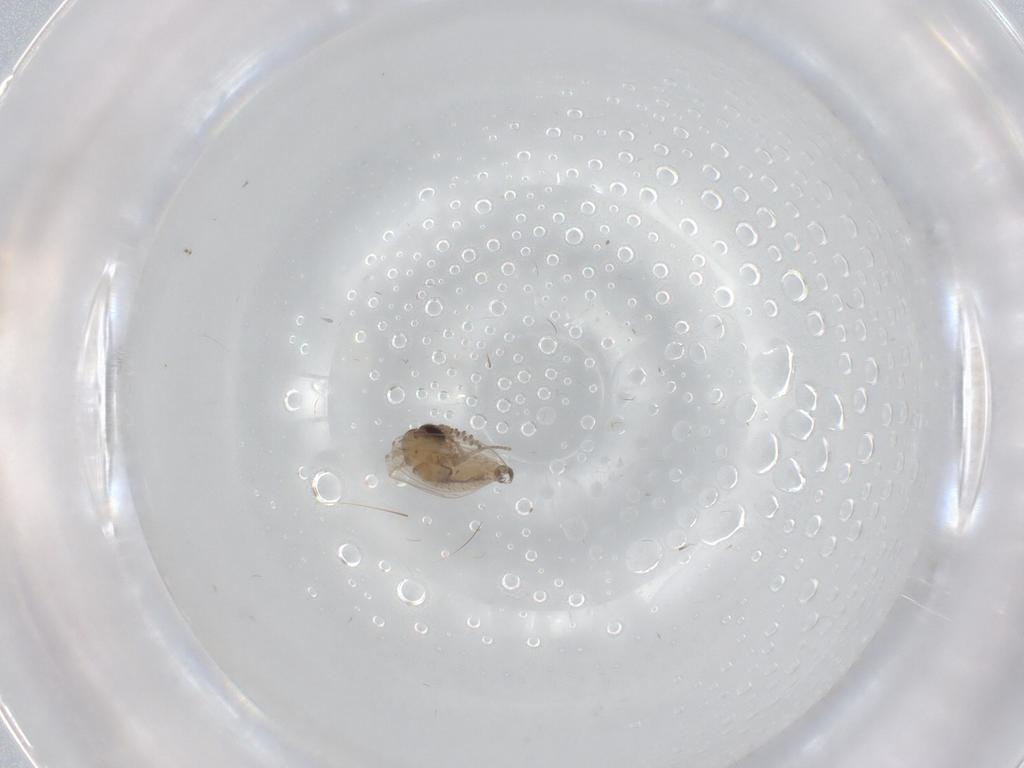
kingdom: Animalia
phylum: Arthropoda
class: Insecta
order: Diptera
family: Psychodidae
